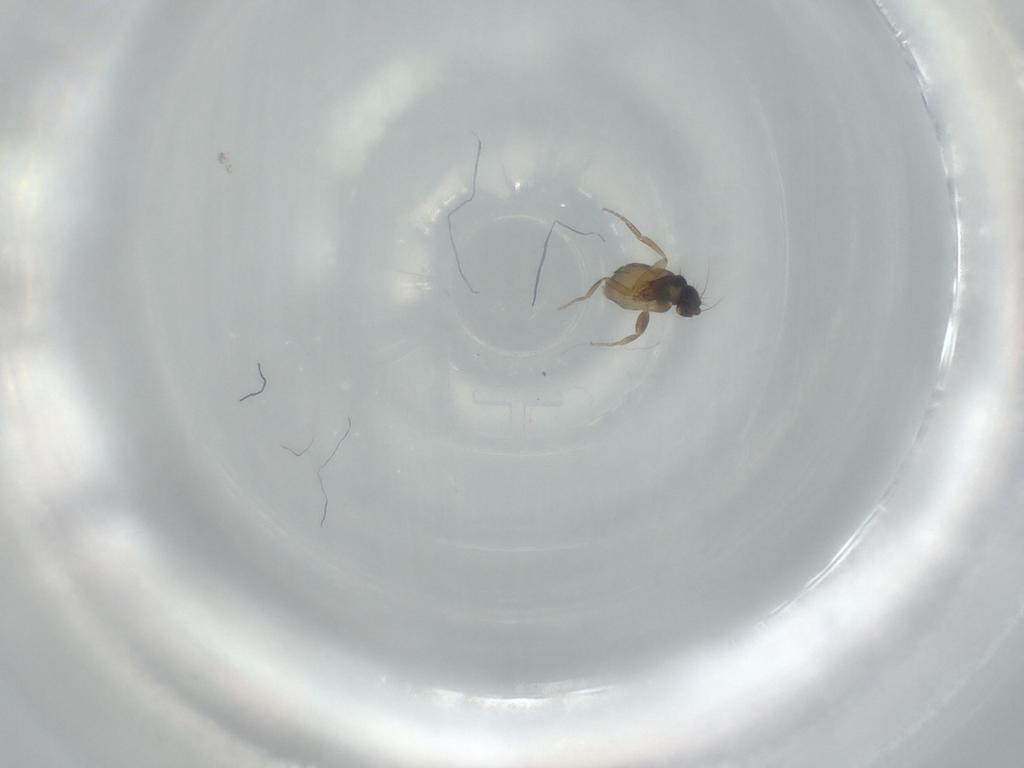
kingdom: Animalia
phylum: Arthropoda
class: Insecta
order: Diptera
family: Phoridae
